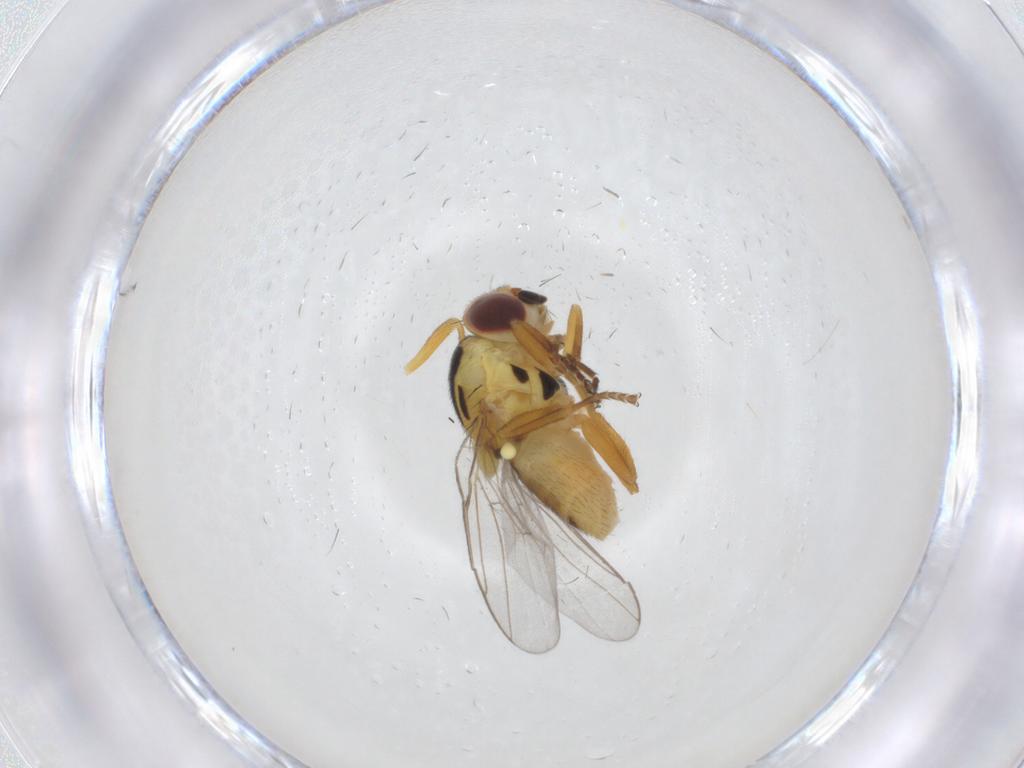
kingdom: Animalia
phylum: Arthropoda
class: Insecta
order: Diptera
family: Chloropidae
